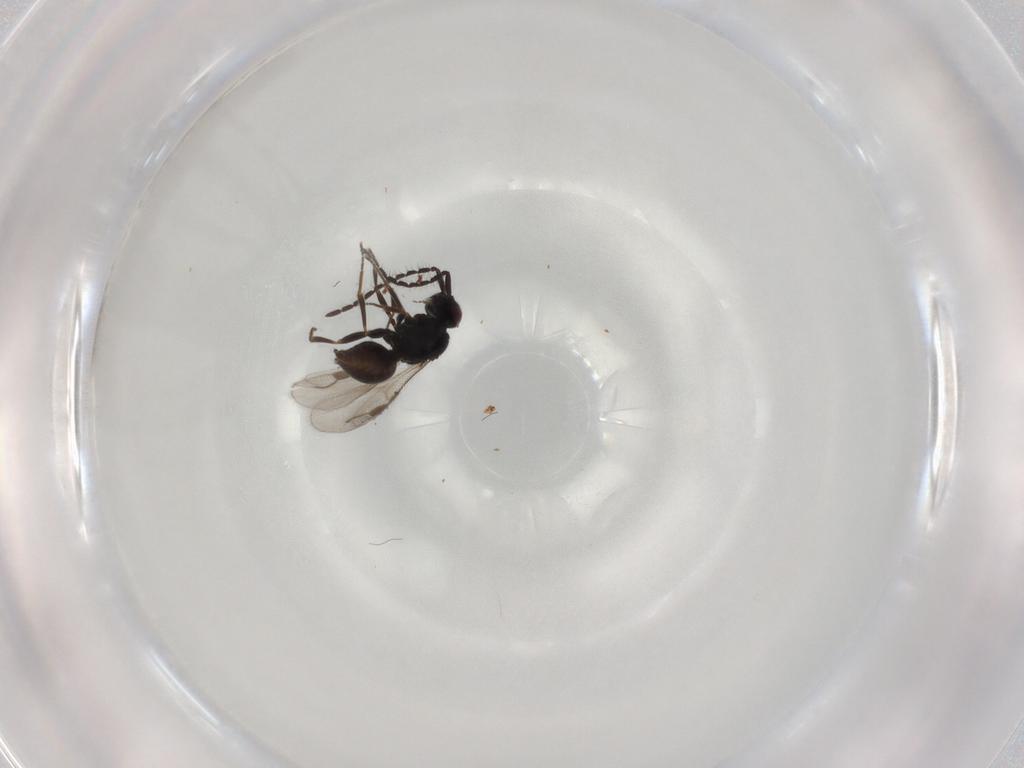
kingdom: Animalia
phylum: Arthropoda
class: Insecta
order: Hymenoptera
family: Megaspilidae
